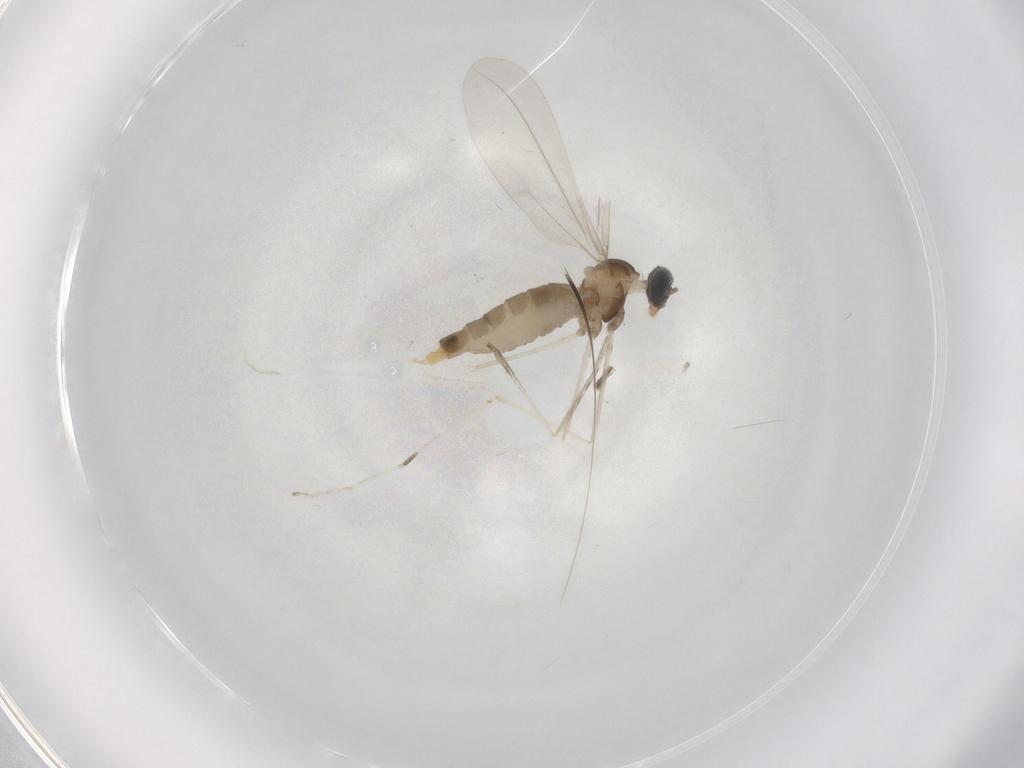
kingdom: Animalia
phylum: Arthropoda
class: Insecta
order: Diptera
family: Cecidomyiidae
